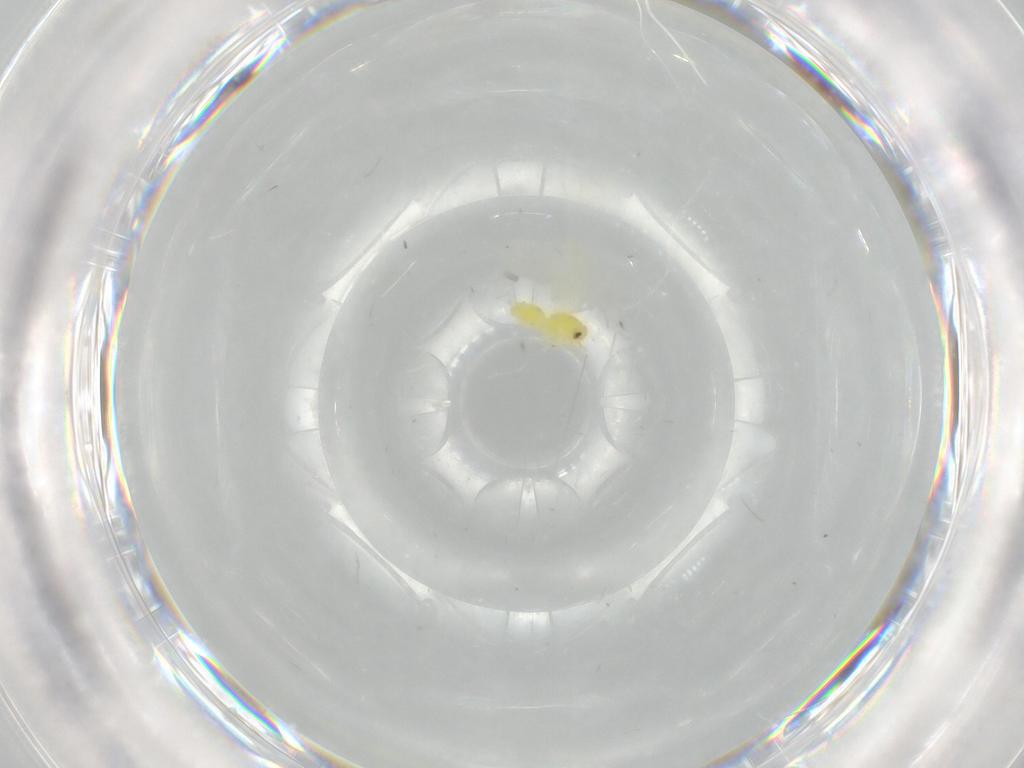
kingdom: Animalia
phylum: Arthropoda
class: Insecta
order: Hemiptera
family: Aleyrodidae
